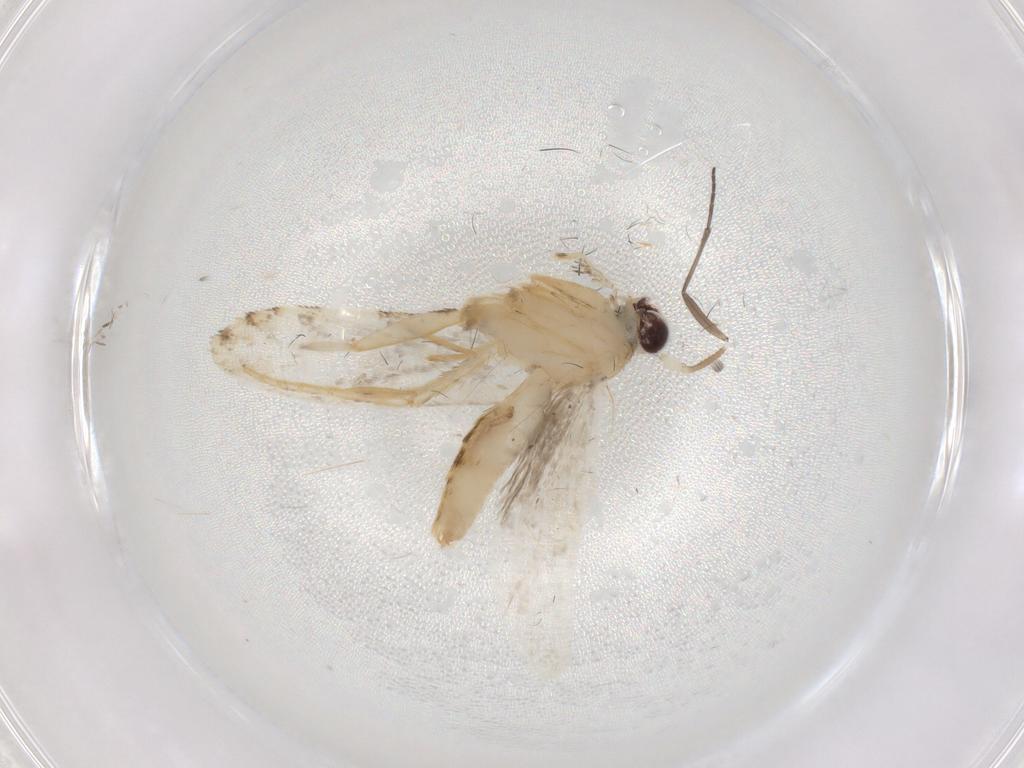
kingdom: Animalia
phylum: Arthropoda
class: Insecta
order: Lepidoptera
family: Tineidae
